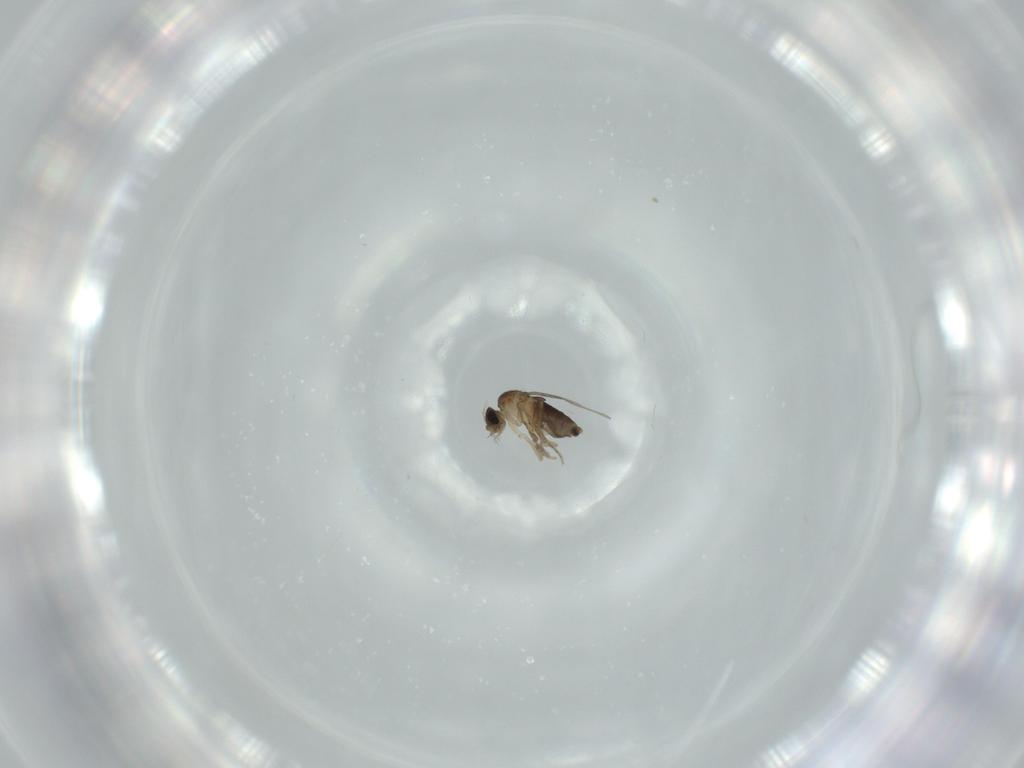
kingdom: Animalia
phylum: Arthropoda
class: Insecta
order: Diptera
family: Phoridae
